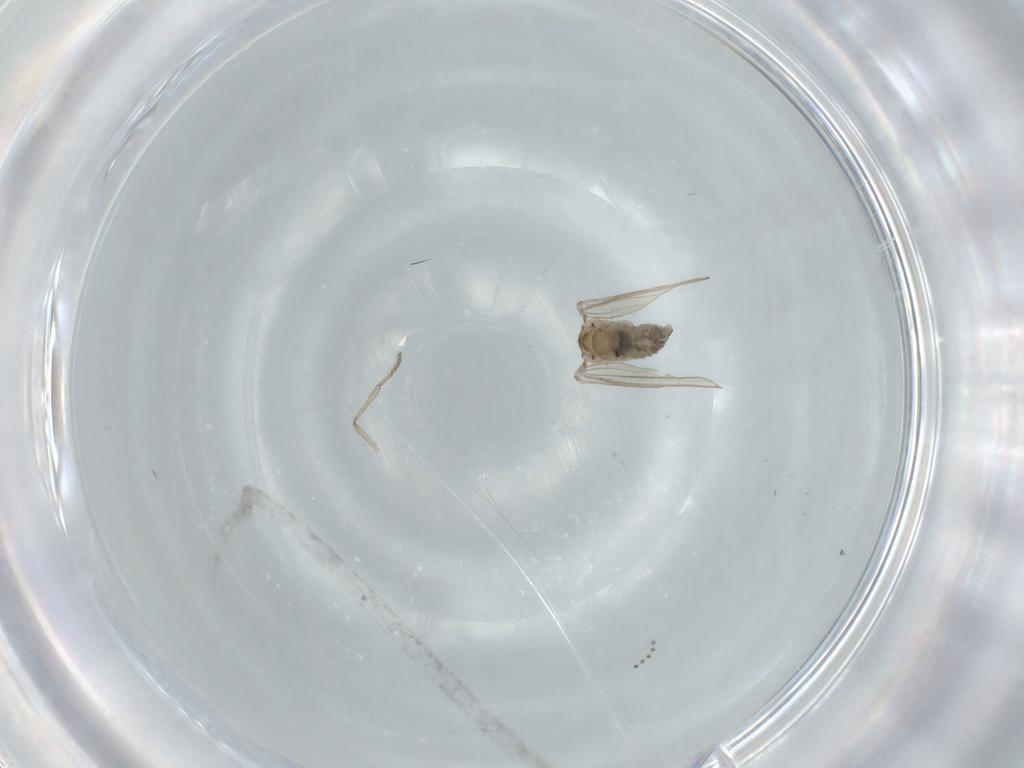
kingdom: Animalia
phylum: Arthropoda
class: Insecta
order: Diptera
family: Psychodidae
